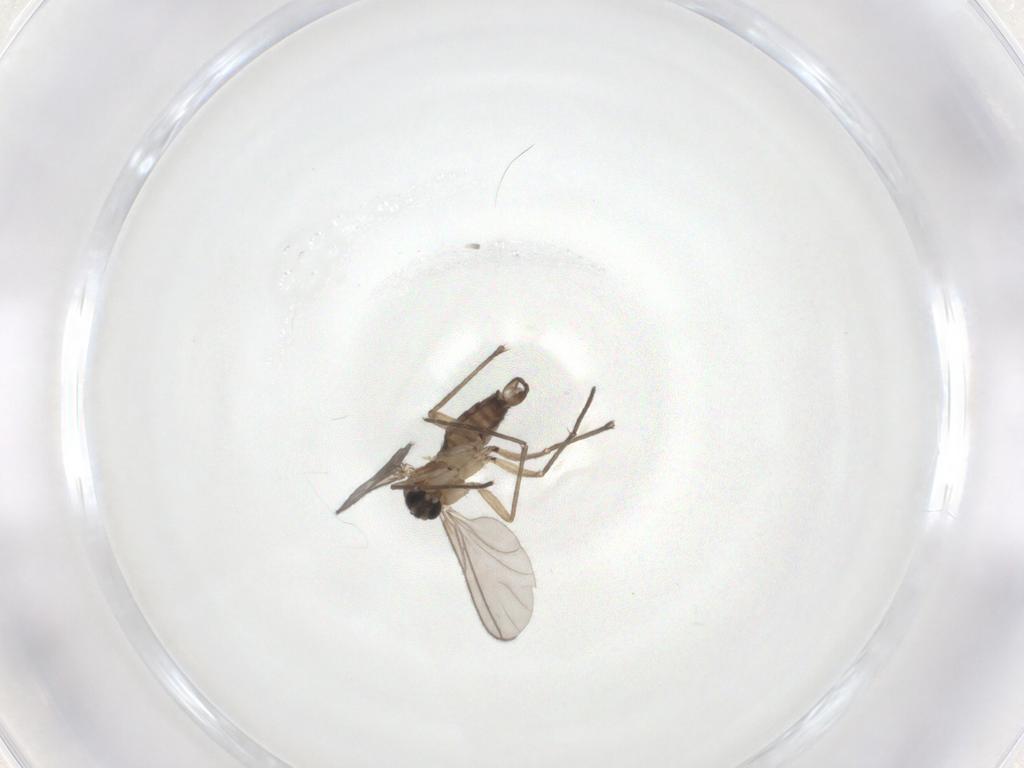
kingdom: Animalia
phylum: Arthropoda
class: Insecta
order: Diptera
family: Sciaridae
